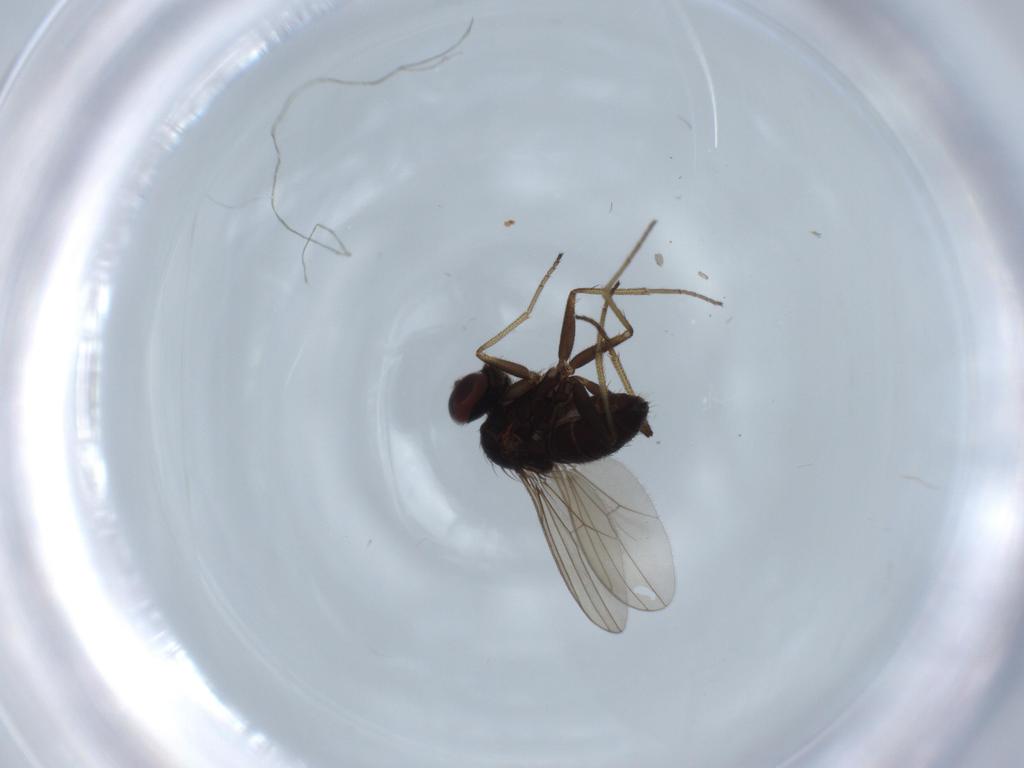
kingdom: Animalia
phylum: Arthropoda
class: Insecta
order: Diptera
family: Dolichopodidae
